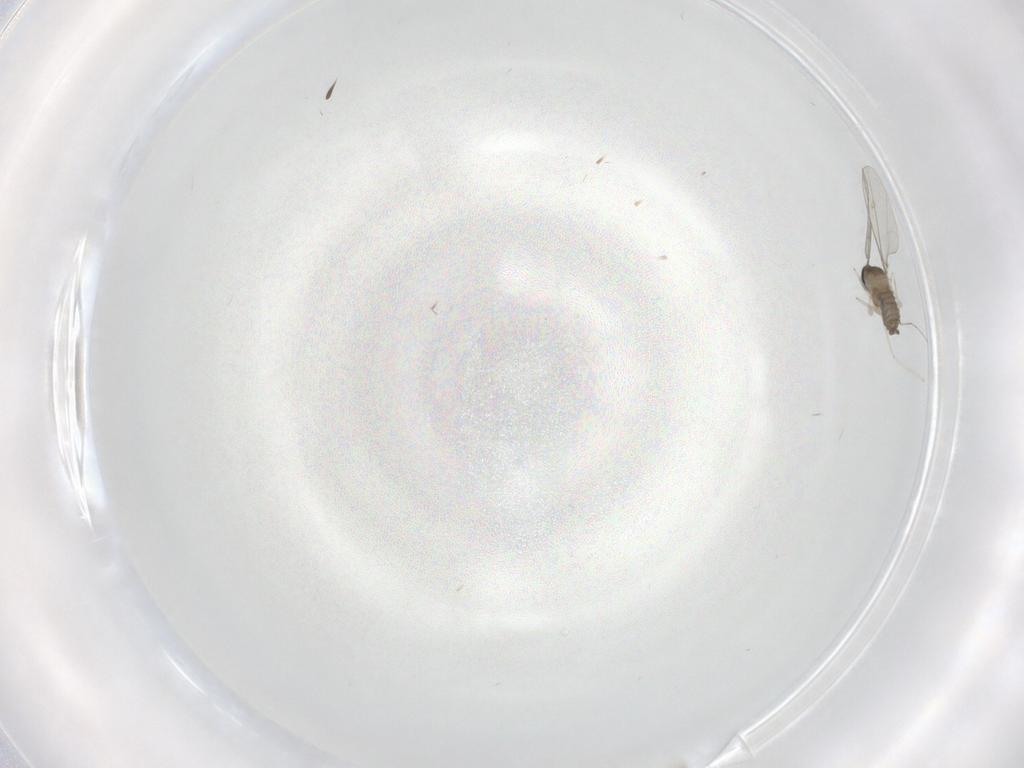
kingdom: Animalia
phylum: Arthropoda
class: Insecta
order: Diptera
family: Cecidomyiidae
